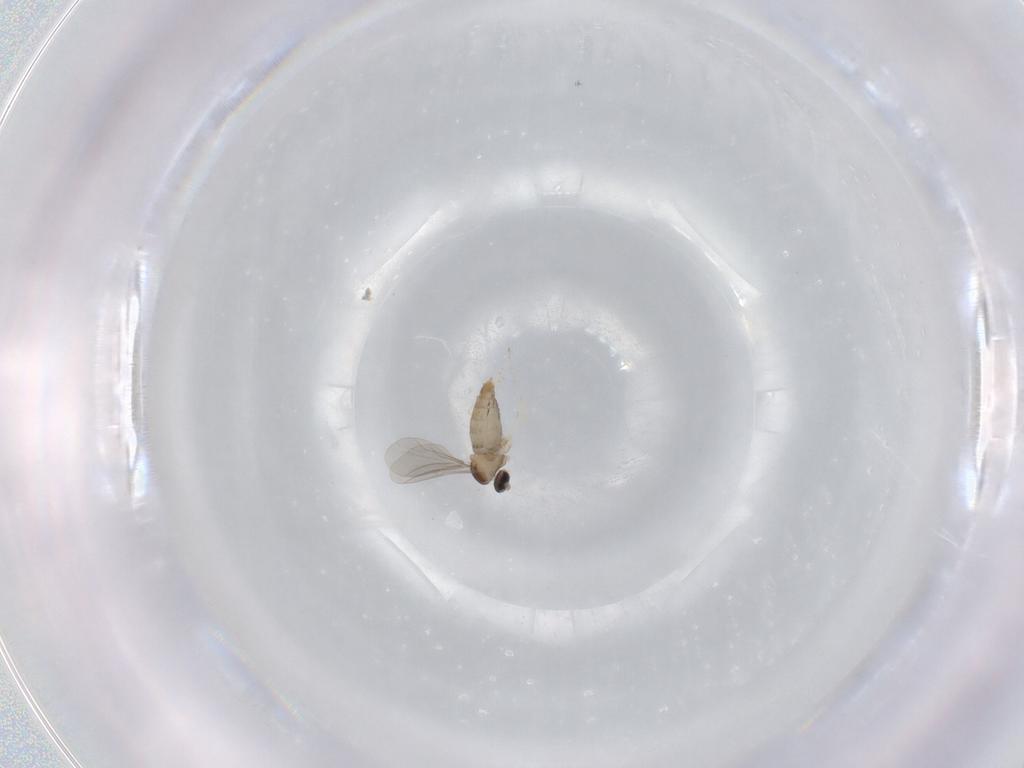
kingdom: Animalia
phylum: Arthropoda
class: Insecta
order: Diptera
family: Cecidomyiidae
